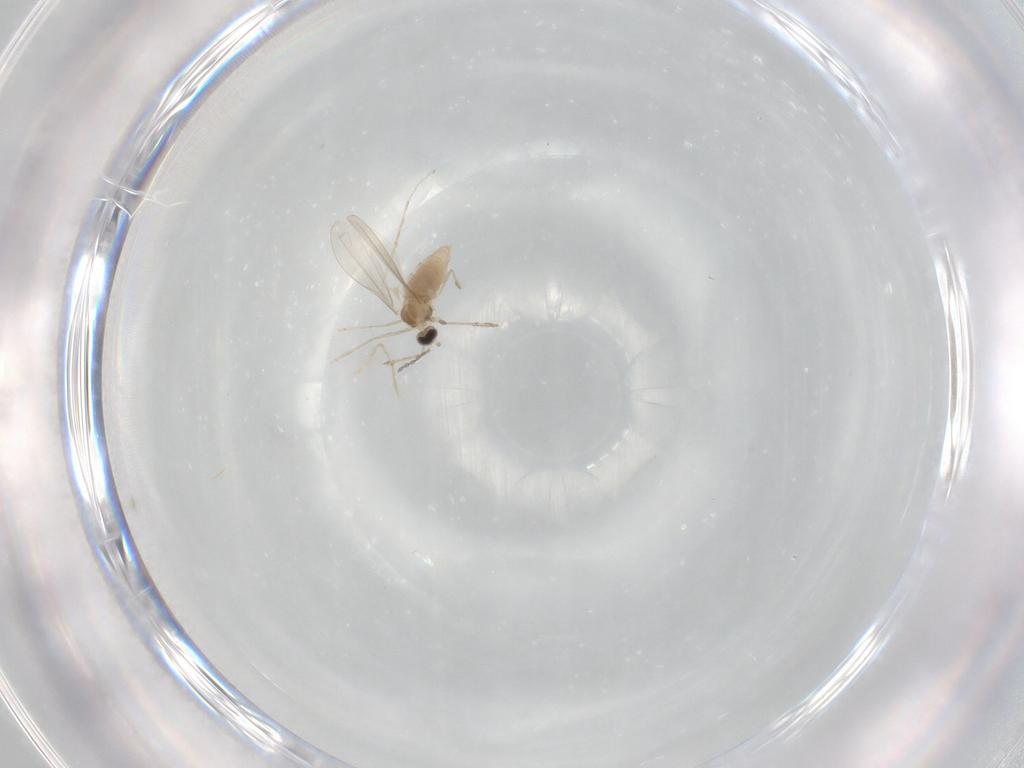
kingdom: Animalia
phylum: Arthropoda
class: Insecta
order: Diptera
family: Cecidomyiidae
